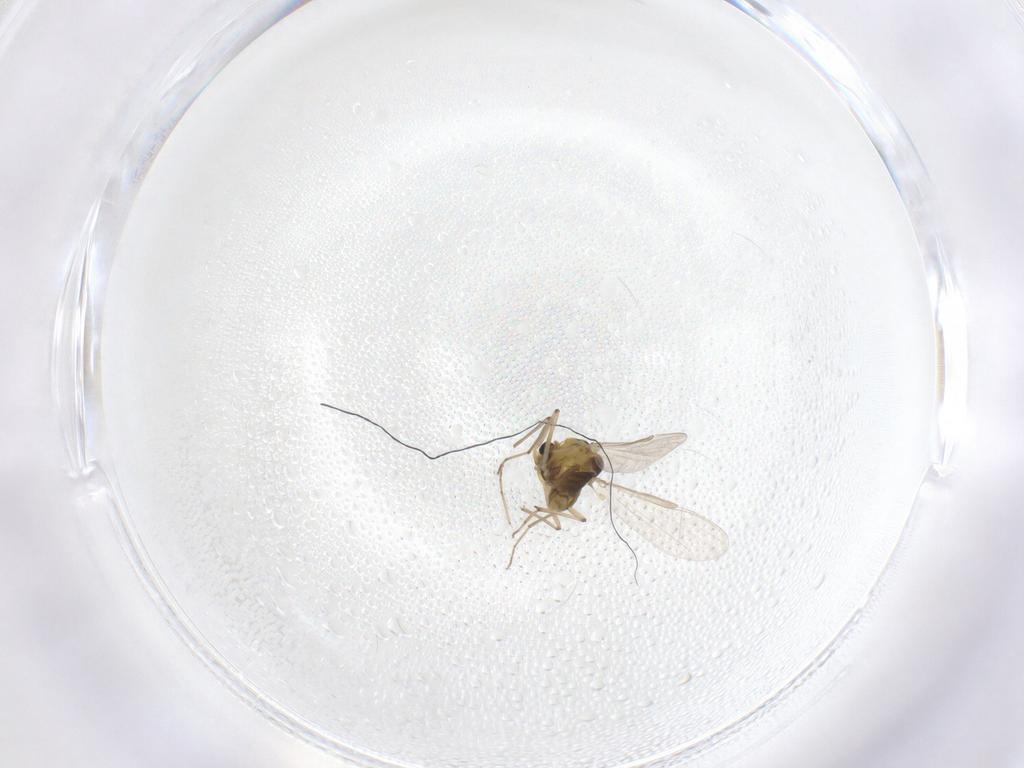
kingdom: Animalia
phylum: Arthropoda
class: Insecta
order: Diptera
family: Chironomidae
